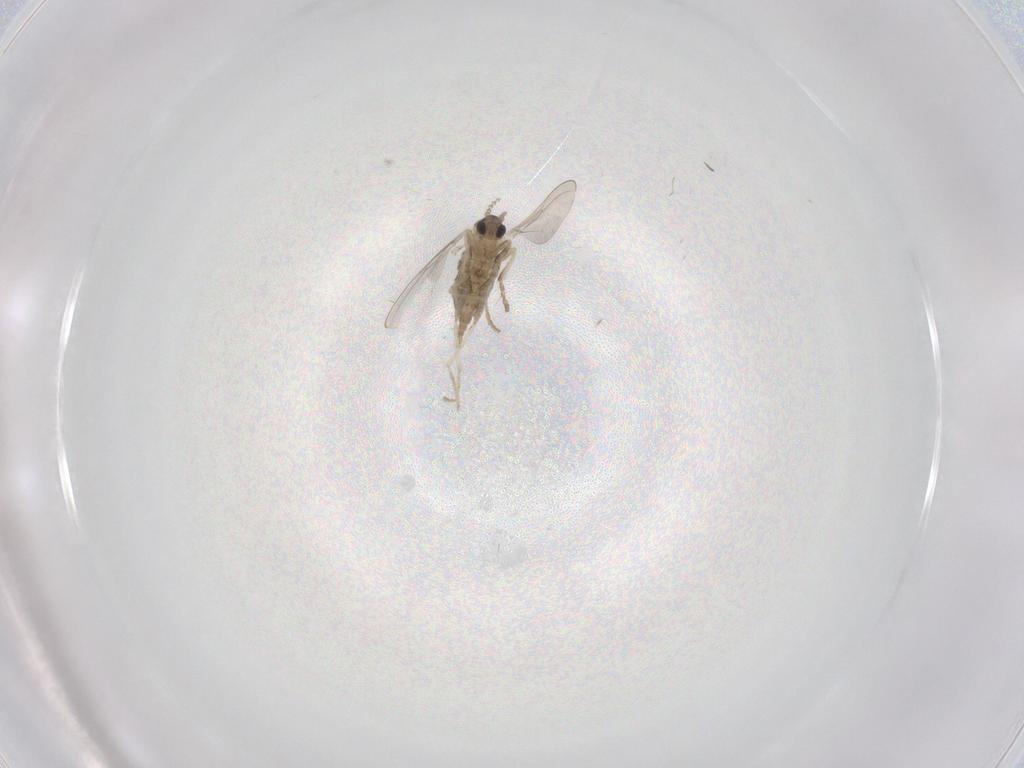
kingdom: Animalia
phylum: Arthropoda
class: Insecta
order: Diptera
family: Cecidomyiidae
